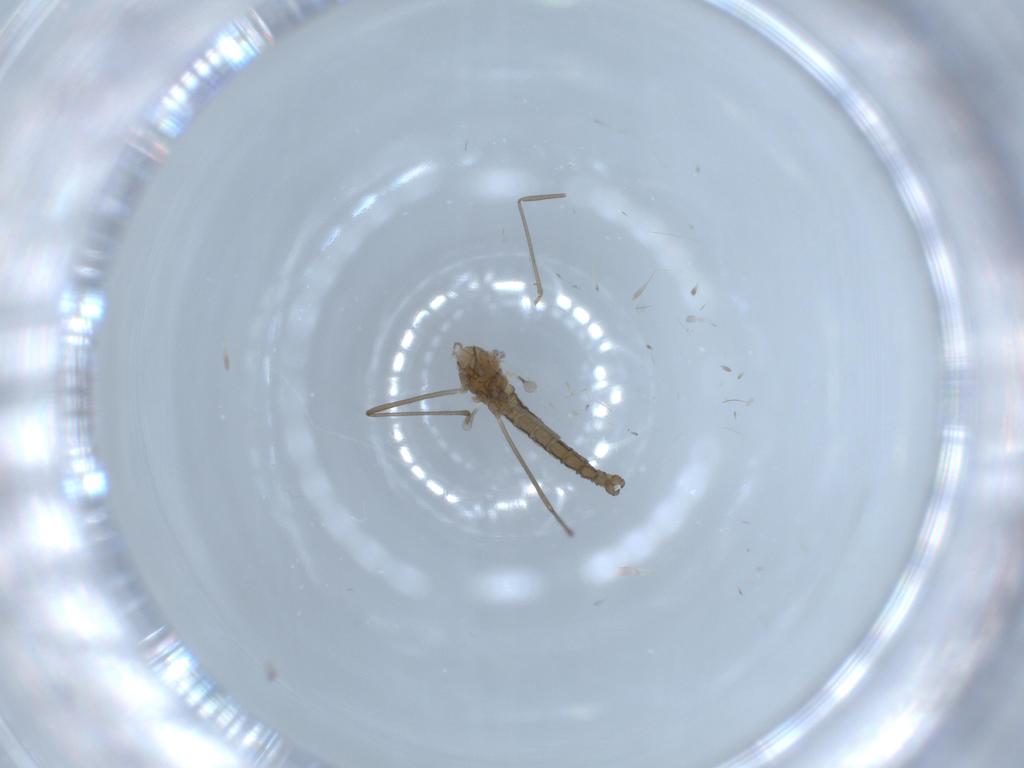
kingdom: Animalia
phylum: Arthropoda
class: Insecta
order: Diptera
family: Cecidomyiidae
